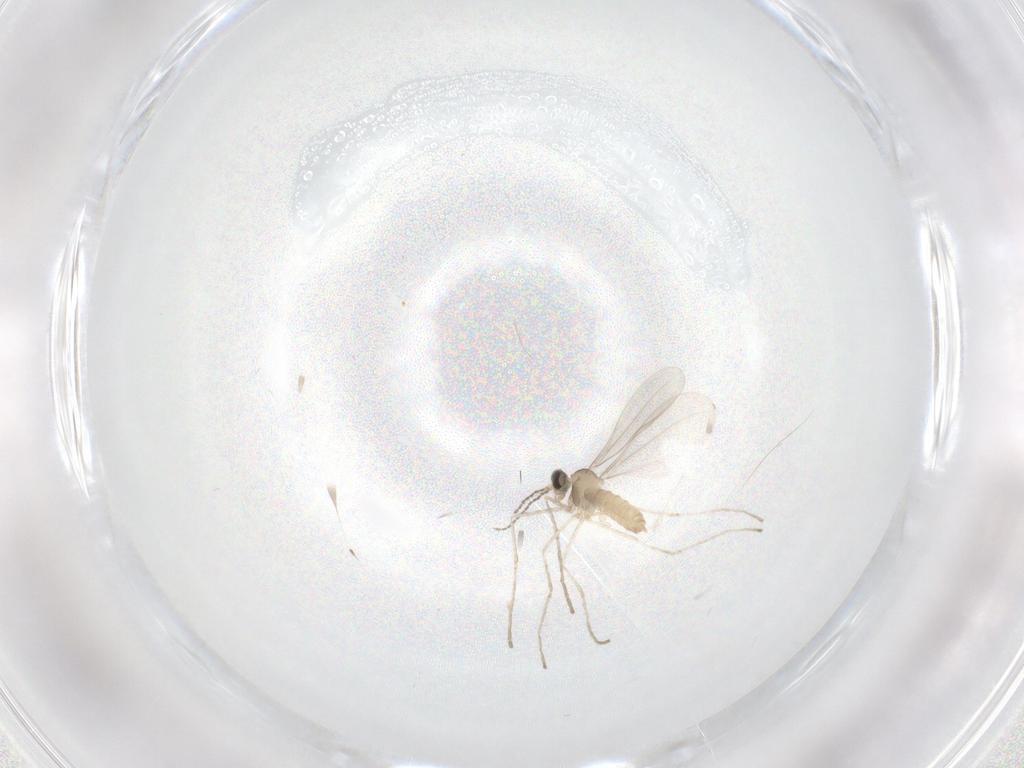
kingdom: Animalia
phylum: Arthropoda
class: Insecta
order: Diptera
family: Cecidomyiidae
